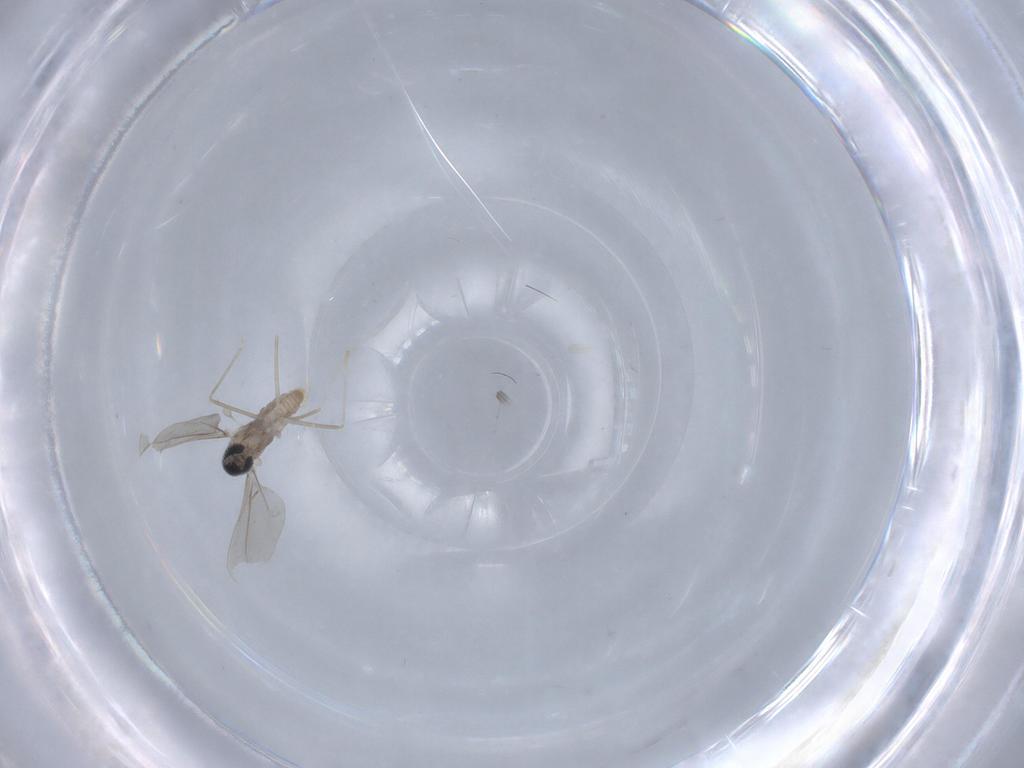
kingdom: Animalia
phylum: Arthropoda
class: Insecta
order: Diptera
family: Cecidomyiidae
